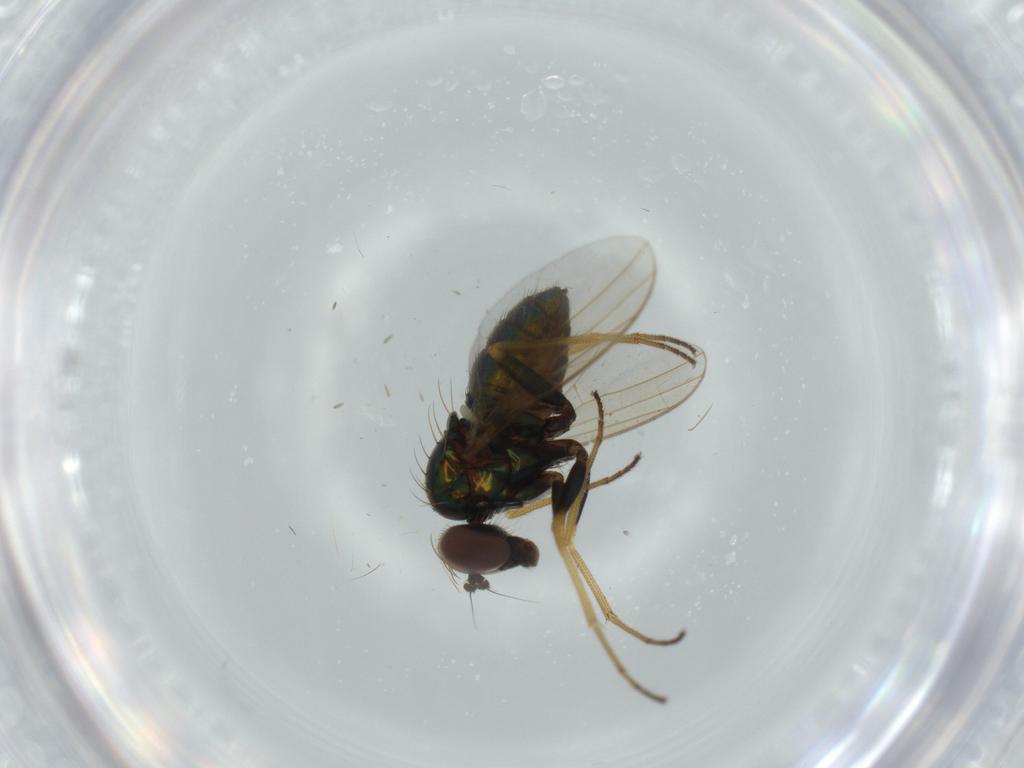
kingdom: Animalia
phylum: Arthropoda
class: Insecta
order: Diptera
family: Dolichopodidae
